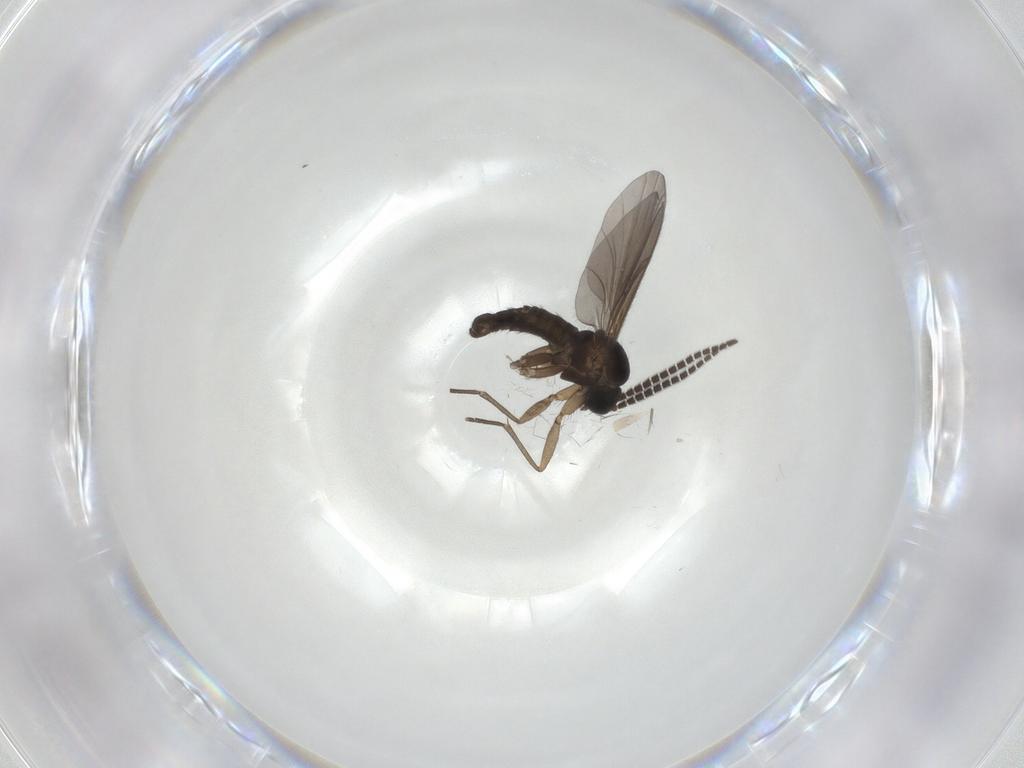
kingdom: Animalia
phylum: Arthropoda
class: Insecta
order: Diptera
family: Sciaridae
